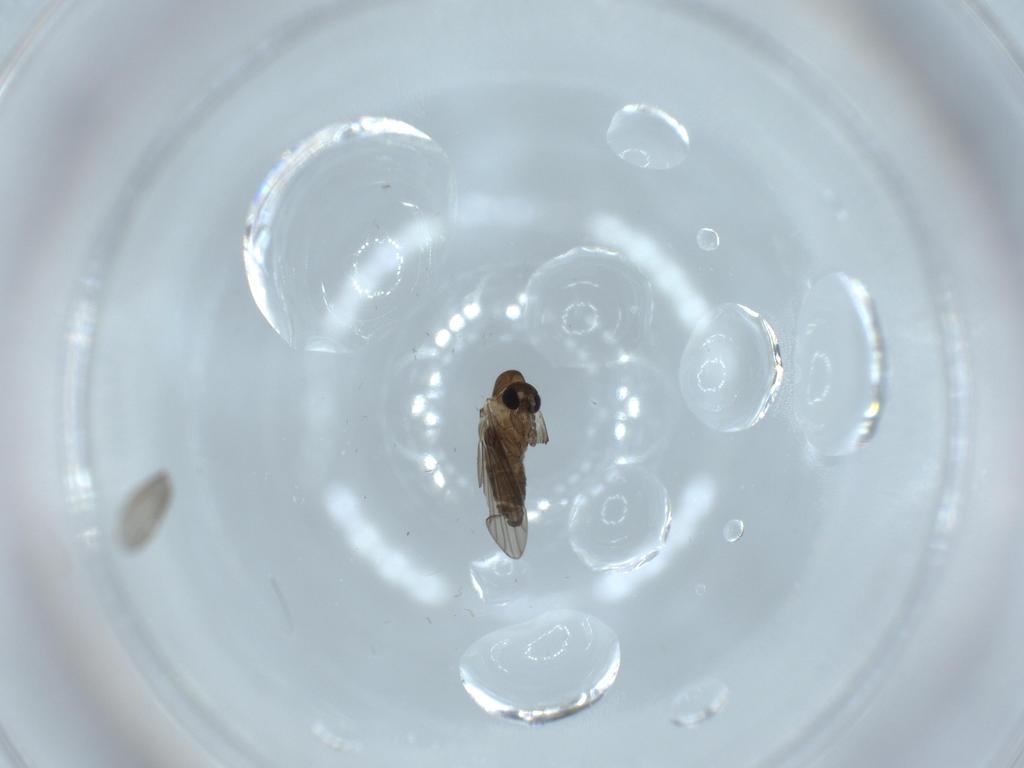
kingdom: Animalia
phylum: Arthropoda
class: Insecta
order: Diptera
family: Psychodidae
